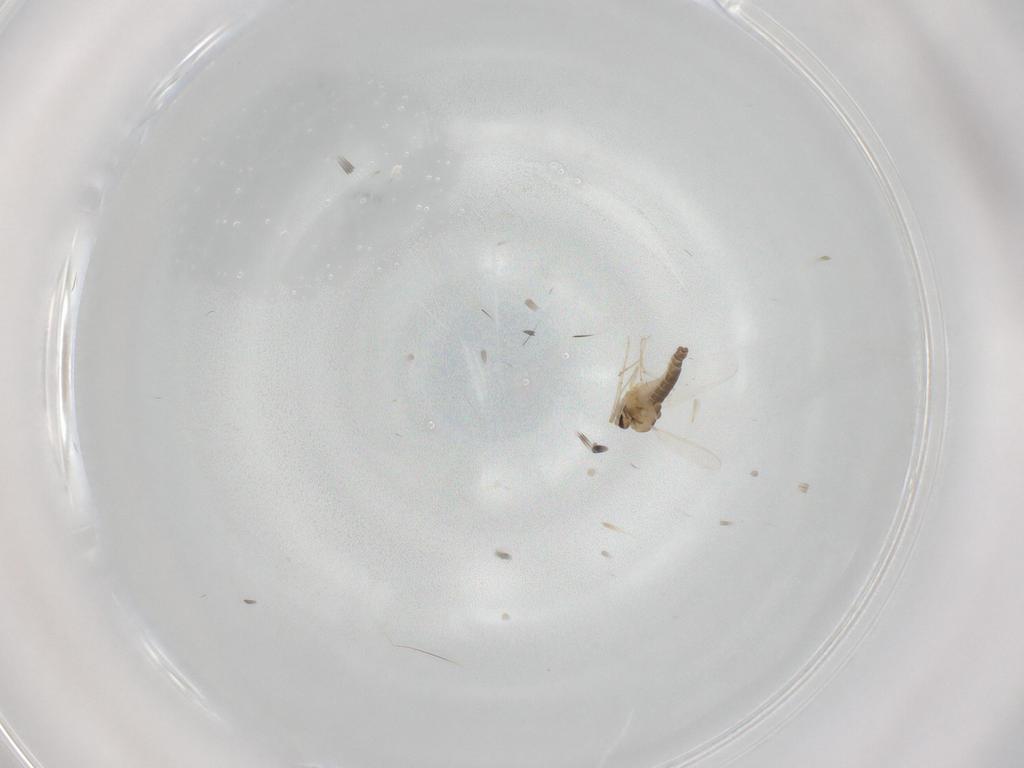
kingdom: Animalia
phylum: Arthropoda
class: Insecta
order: Diptera
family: Chironomidae
